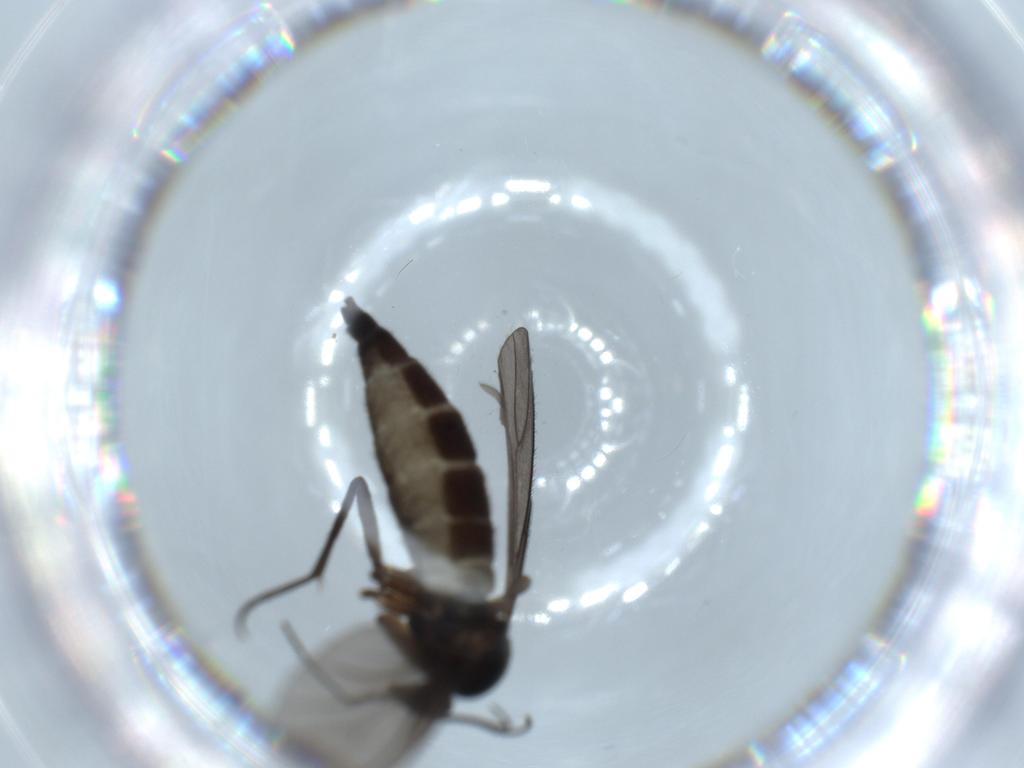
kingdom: Animalia
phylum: Arthropoda
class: Insecta
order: Diptera
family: Sciaridae
